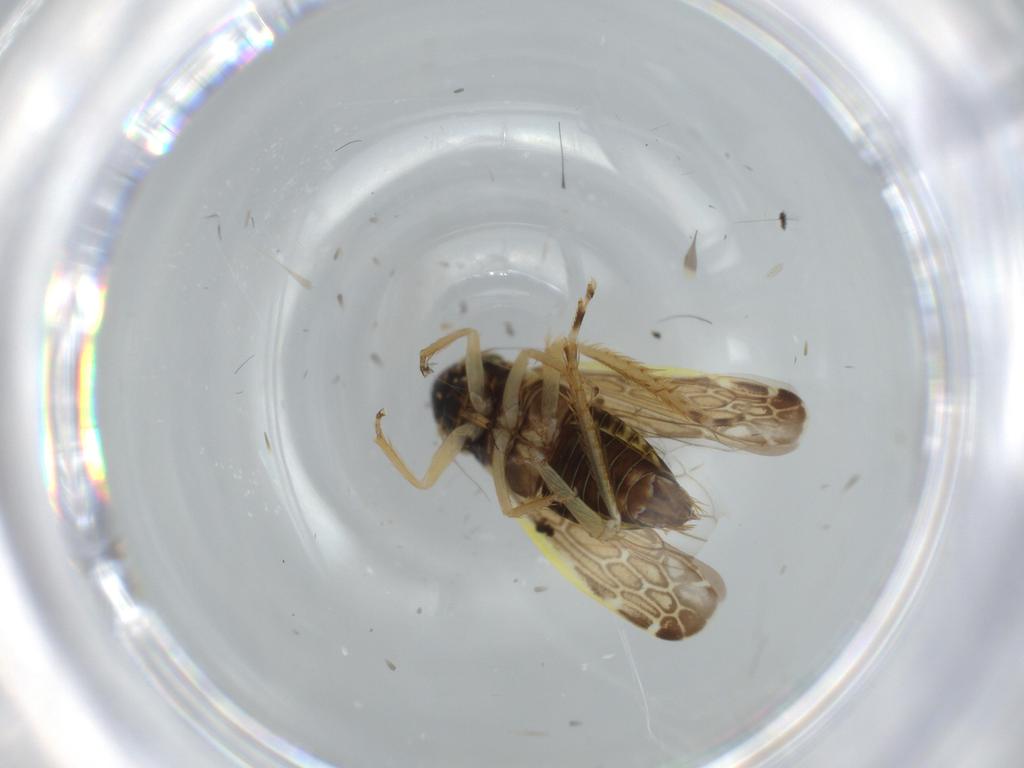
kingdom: Animalia
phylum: Arthropoda
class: Insecta
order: Hemiptera
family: Cicadellidae
